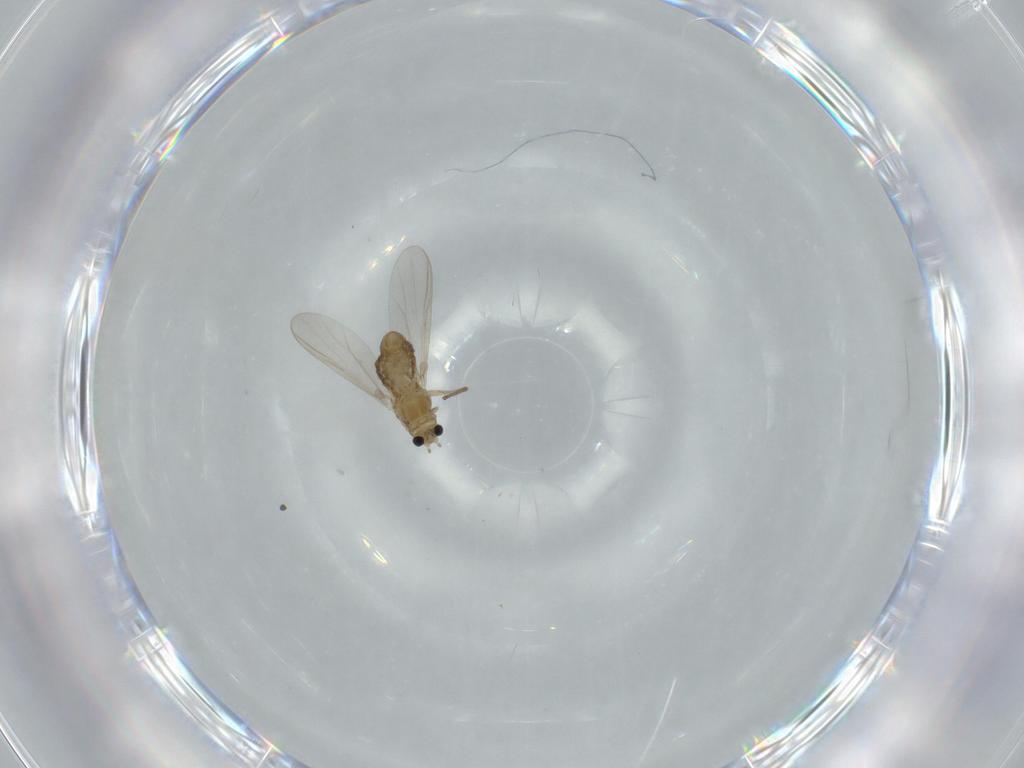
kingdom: Animalia
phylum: Arthropoda
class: Insecta
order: Diptera
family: Chironomidae
